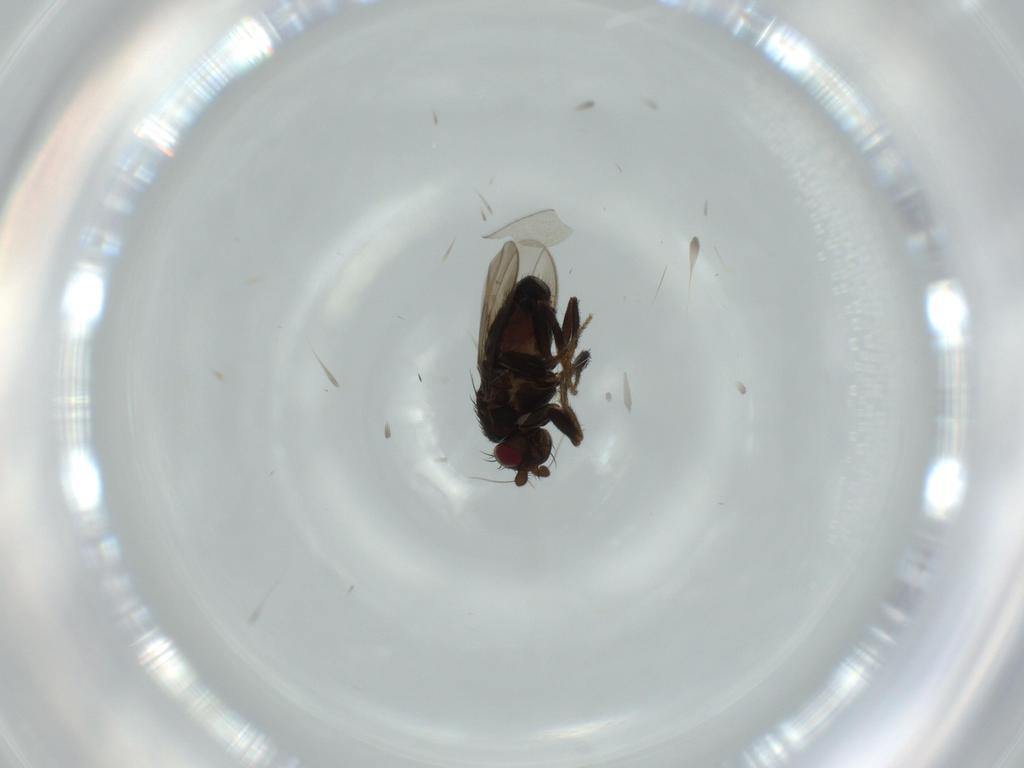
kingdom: Animalia
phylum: Arthropoda
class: Insecta
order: Diptera
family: Sphaeroceridae
